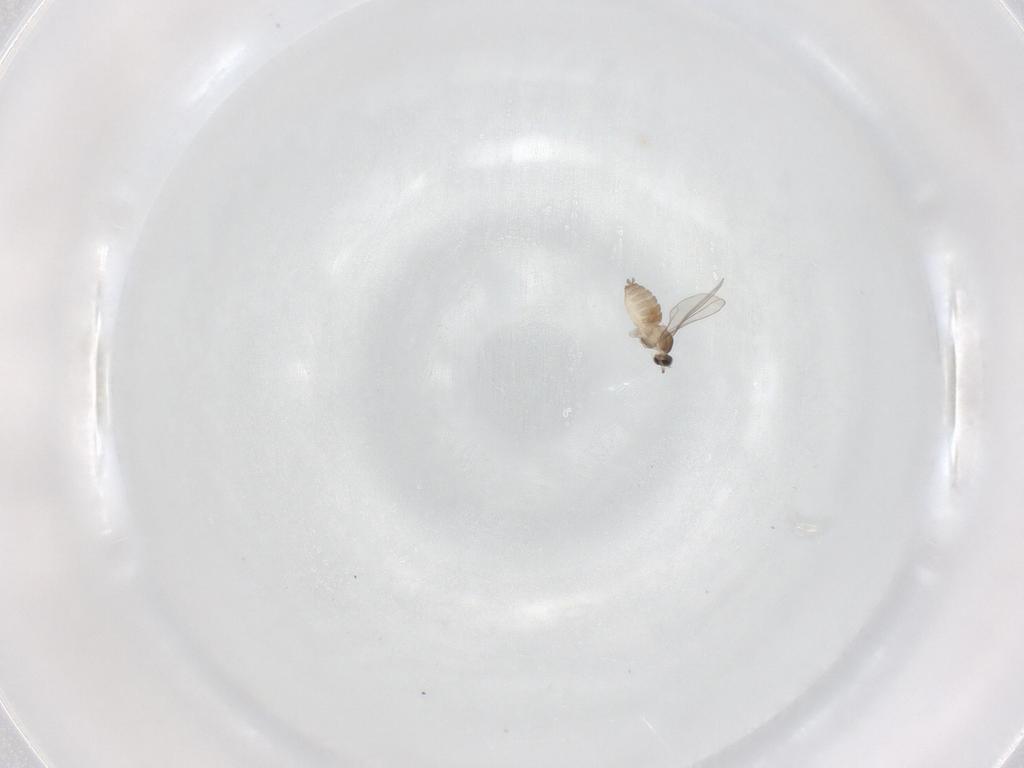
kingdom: Animalia
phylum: Arthropoda
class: Insecta
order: Diptera
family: Cecidomyiidae
